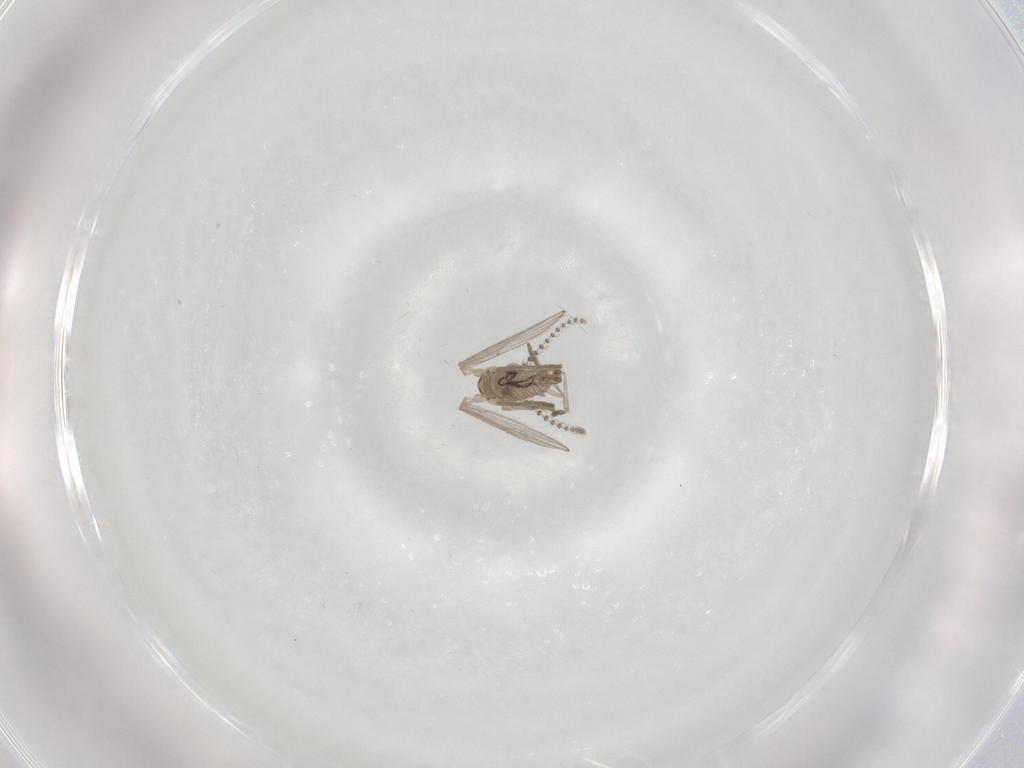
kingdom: Animalia
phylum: Arthropoda
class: Insecta
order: Diptera
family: Psychodidae
